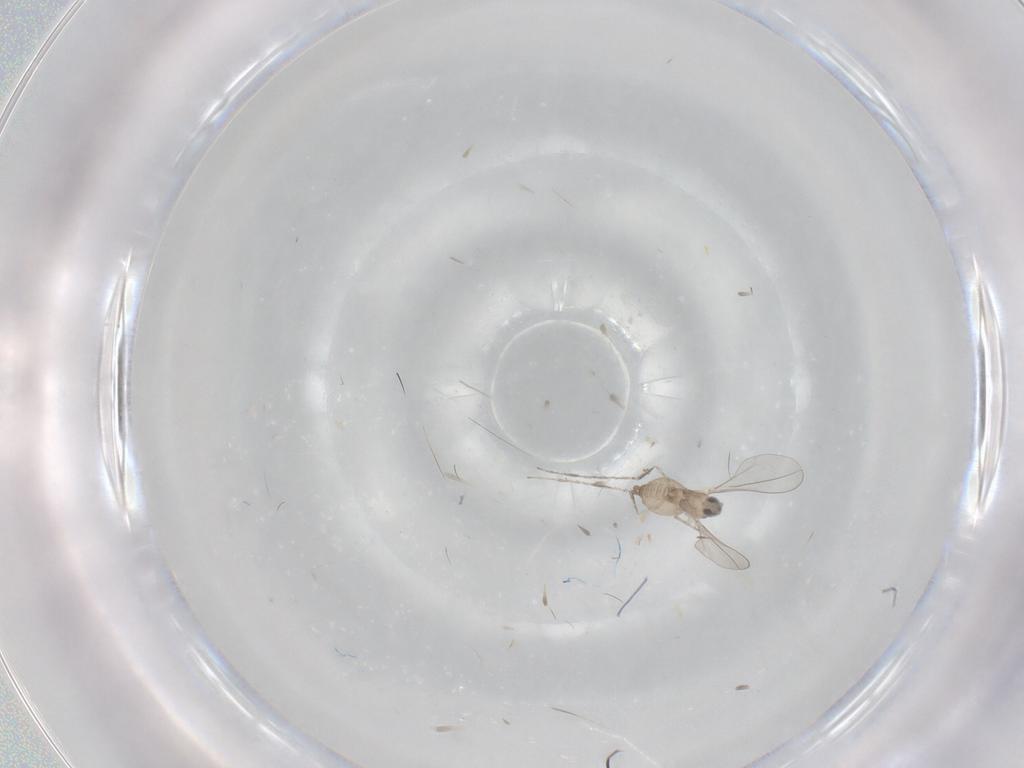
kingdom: Animalia
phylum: Arthropoda
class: Insecta
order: Diptera
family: Cecidomyiidae
